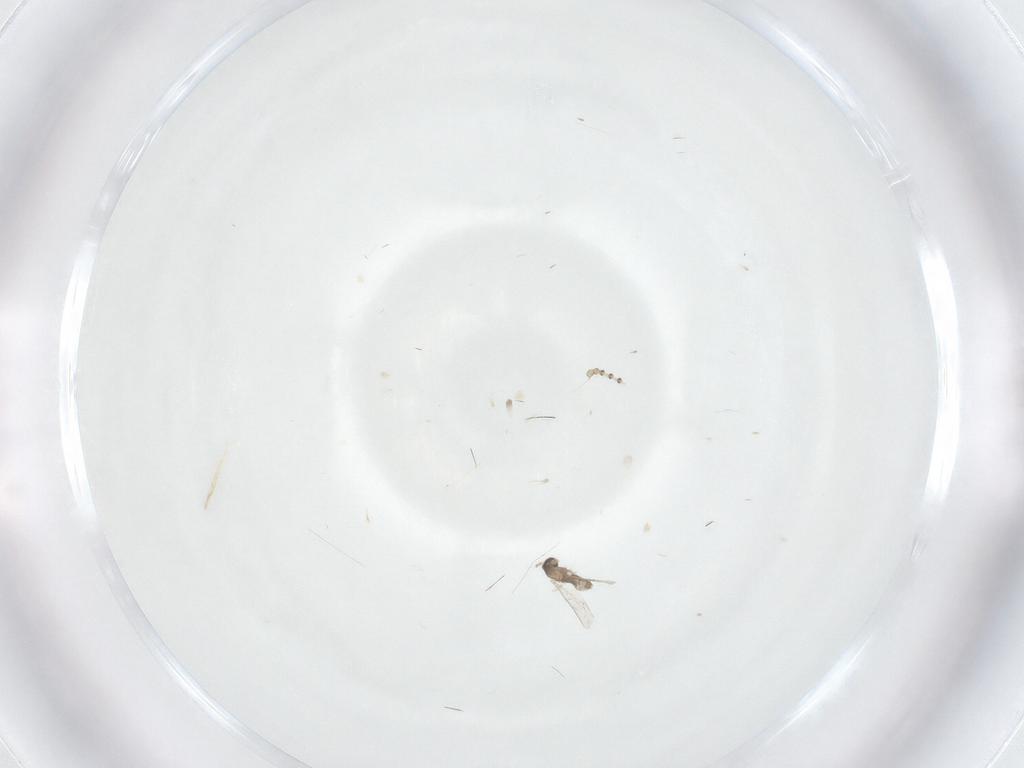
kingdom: Animalia
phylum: Arthropoda
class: Insecta
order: Diptera
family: Psychodidae
